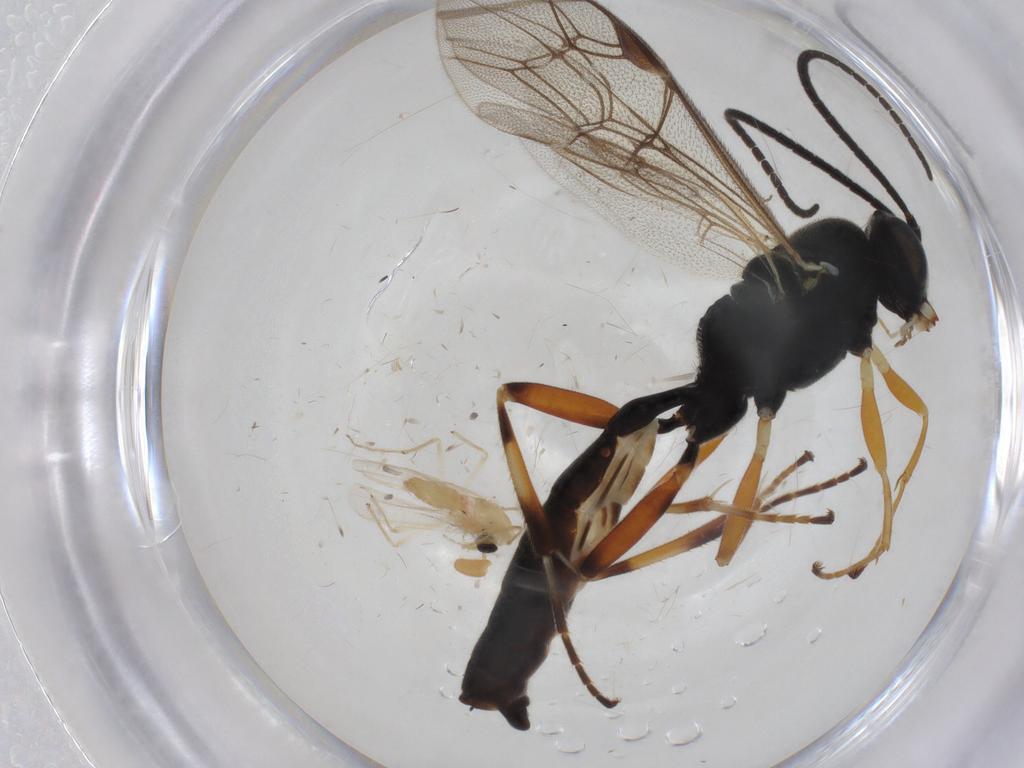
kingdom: Animalia
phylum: Arthropoda
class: Insecta
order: Hymenoptera
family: Ichneumonidae
